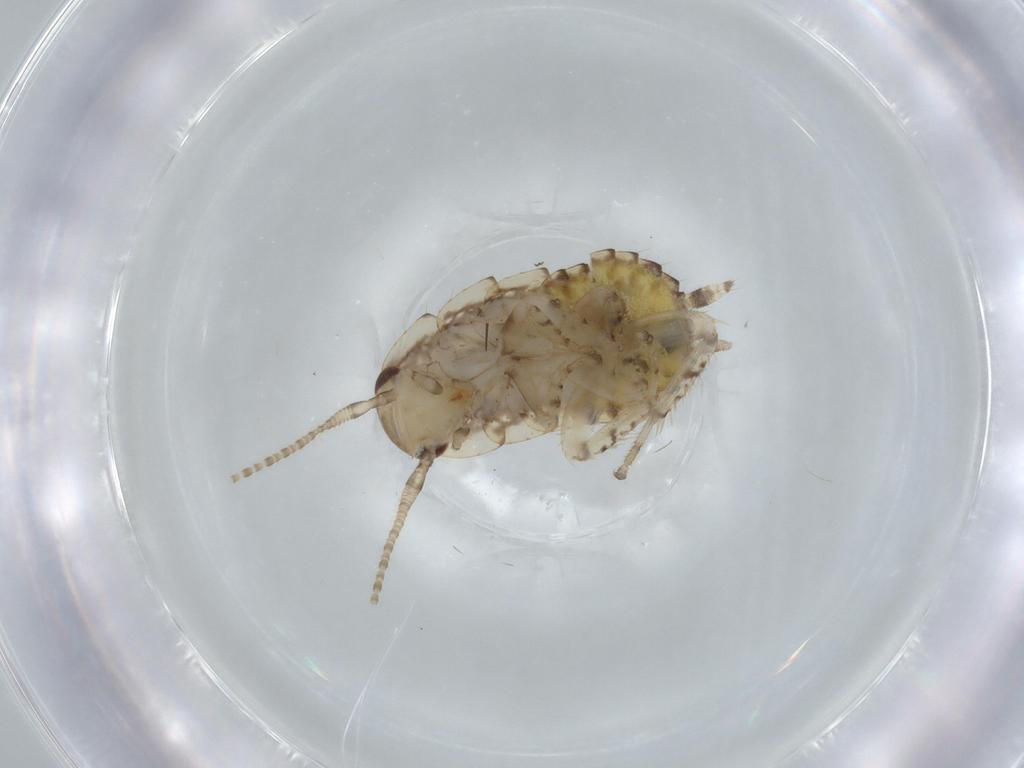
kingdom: Animalia
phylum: Arthropoda
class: Insecta
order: Blattodea
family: Ectobiidae
